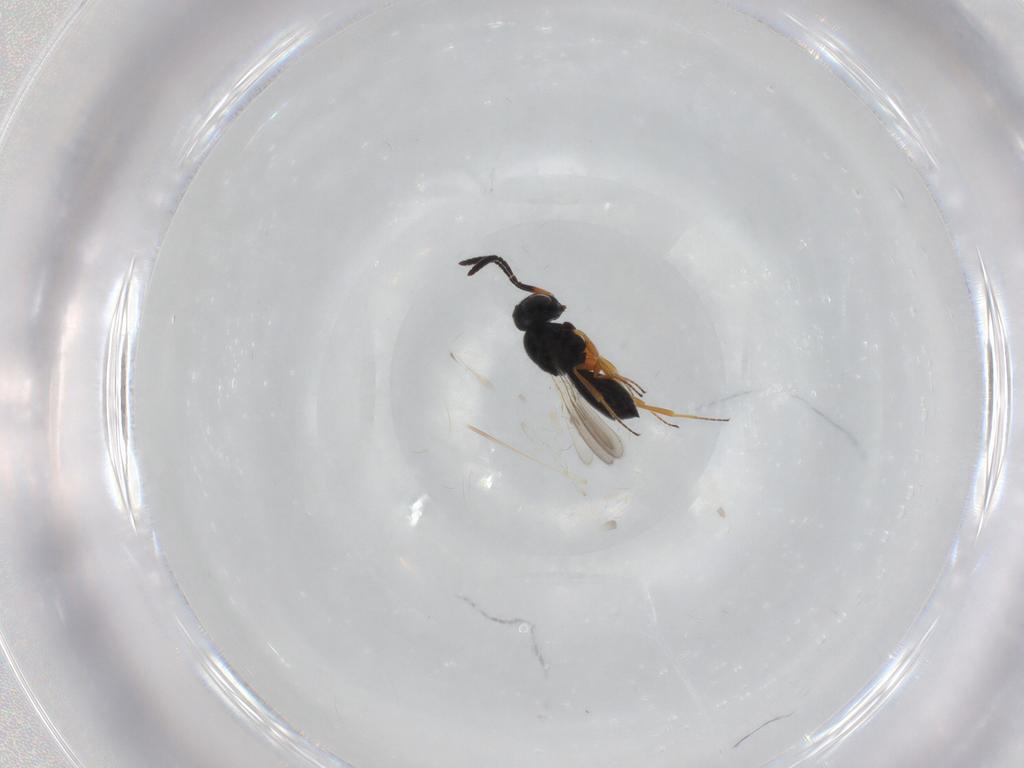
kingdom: Animalia
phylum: Arthropoda
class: Insecta
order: Hymenoptera
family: Scelionidae
